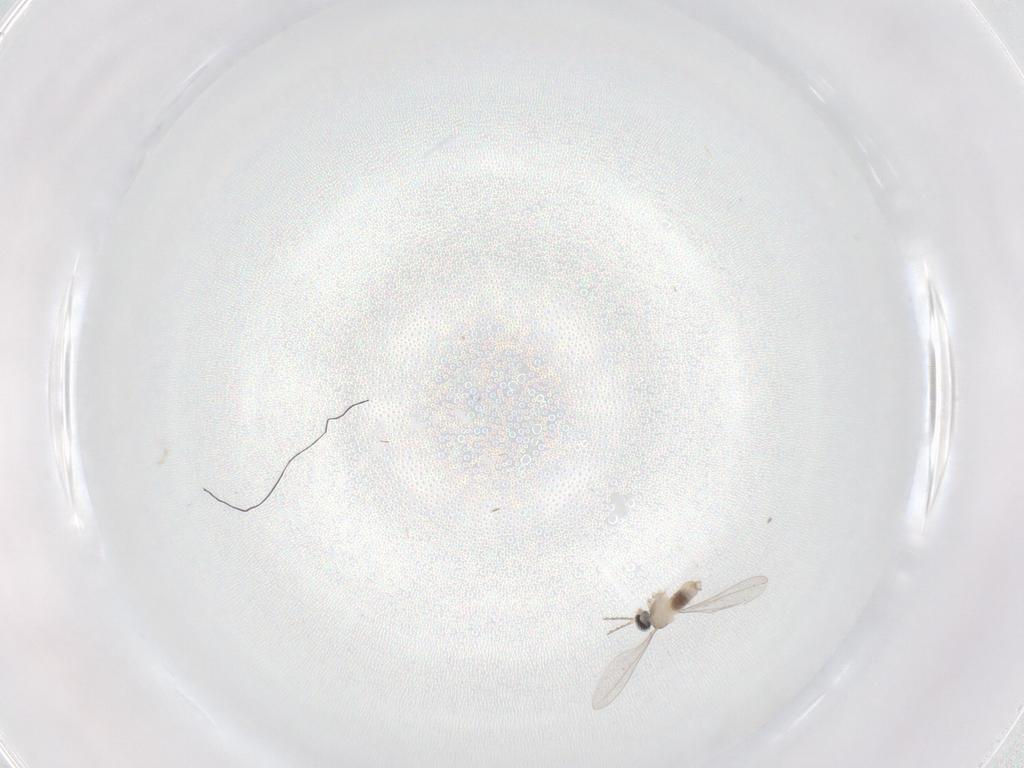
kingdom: Animalia
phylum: Arthropoda
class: Insecta
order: Diptera
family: Cecidomyiidae
